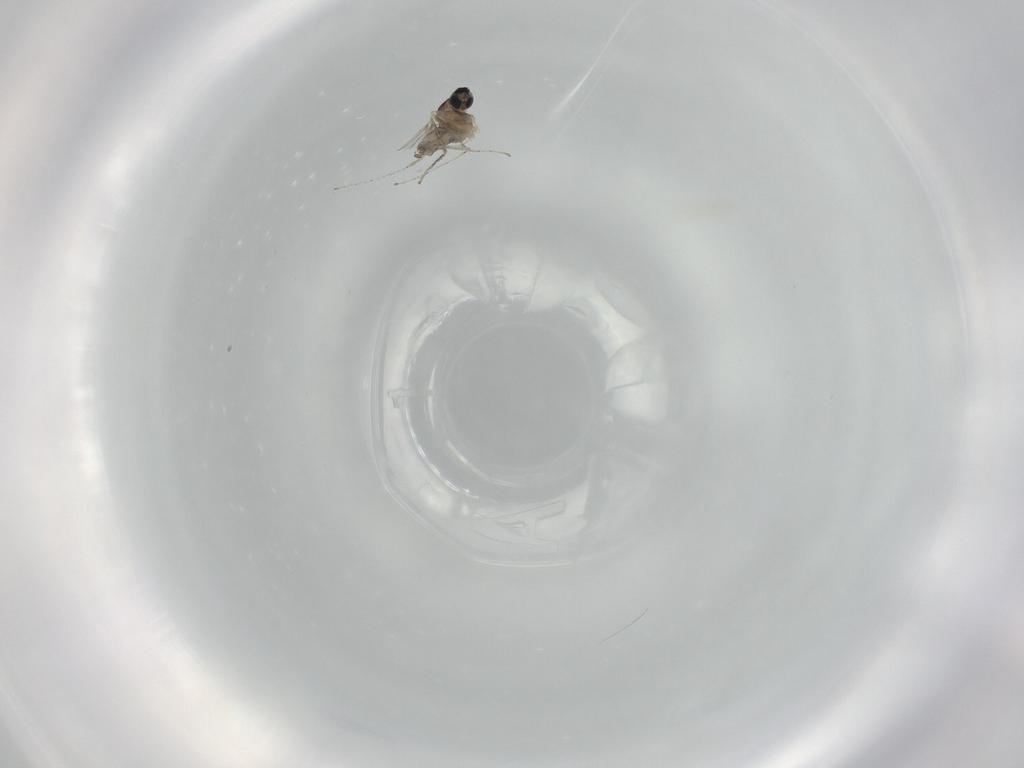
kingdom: Animalia
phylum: Arthropoda
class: Insecta
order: Diptera
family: Cecidomyiidae
